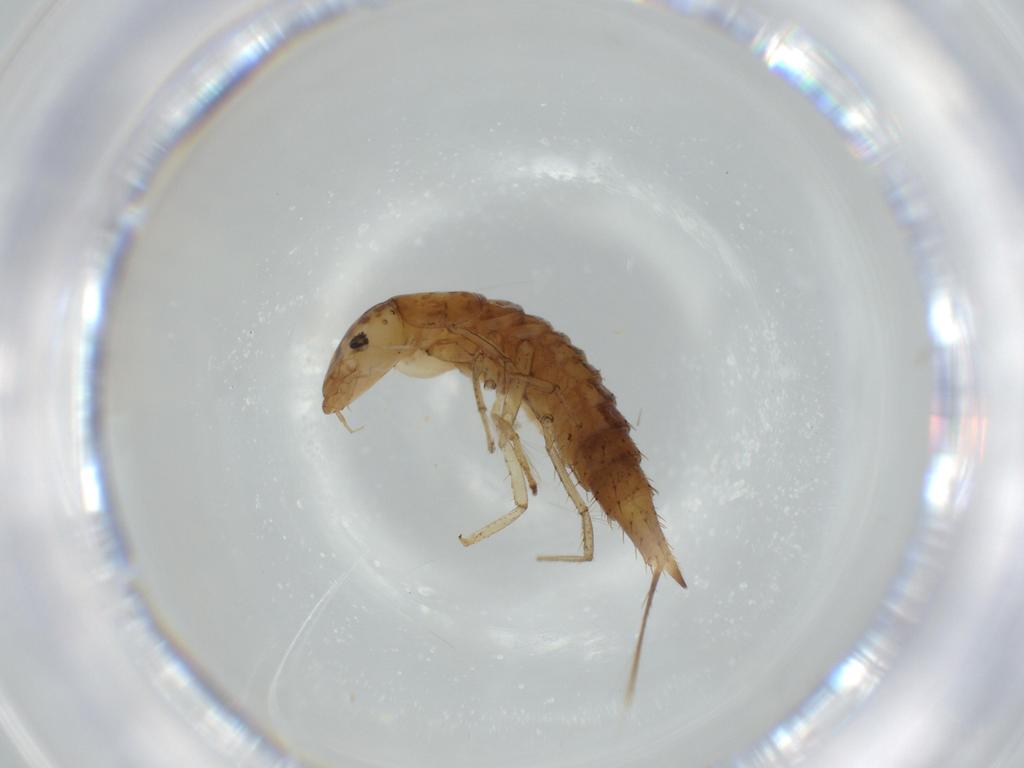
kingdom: Animalia
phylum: Arthropoda
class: Insecta
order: Coleoptera
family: Dytiscidae
